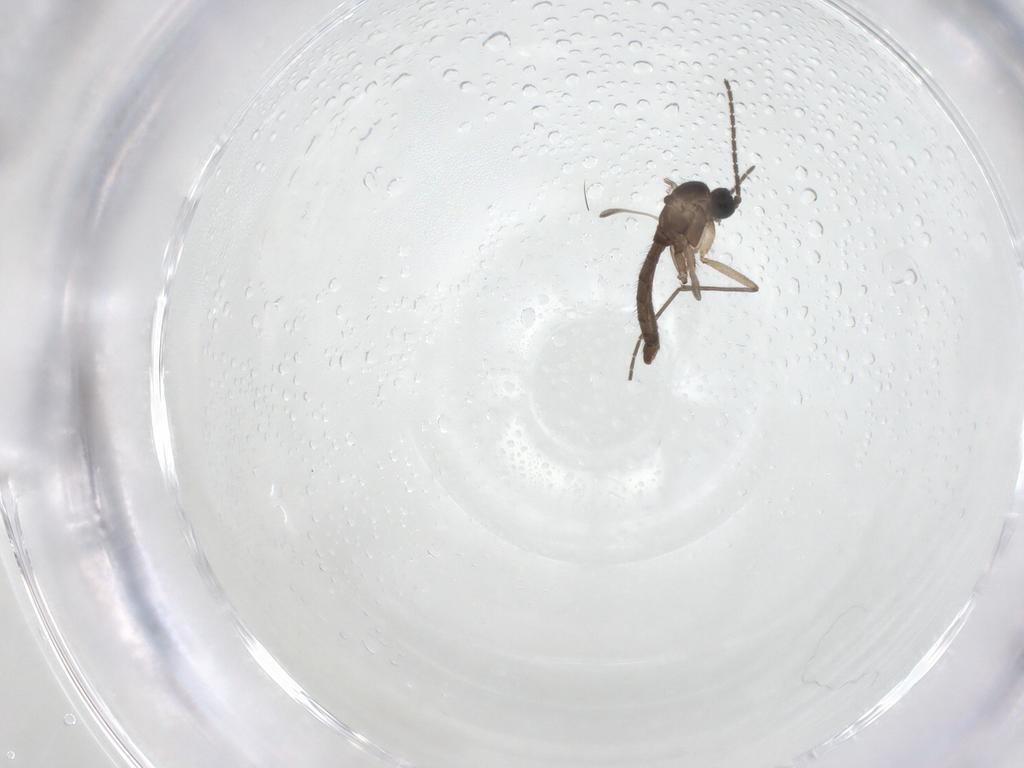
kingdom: Animalia
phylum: Arthropoda
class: Insecta
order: Diptera
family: Sciaridae
